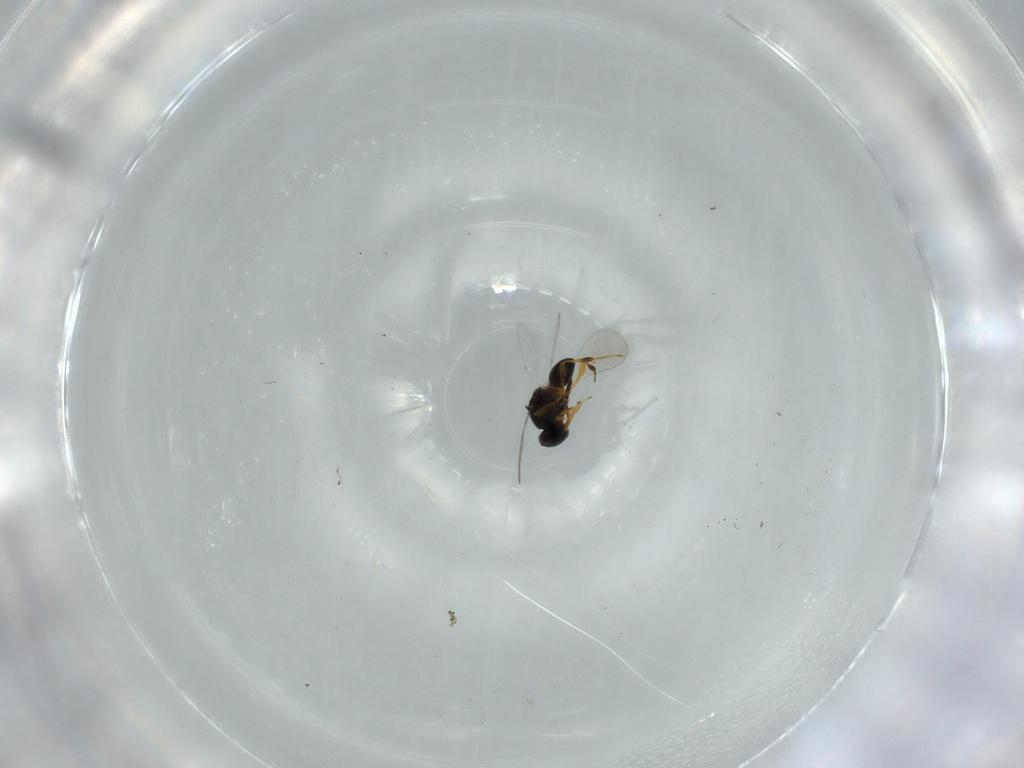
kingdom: Animalia
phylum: Arthropoda
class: Insecta
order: Hymenoptera
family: Platygastridae
